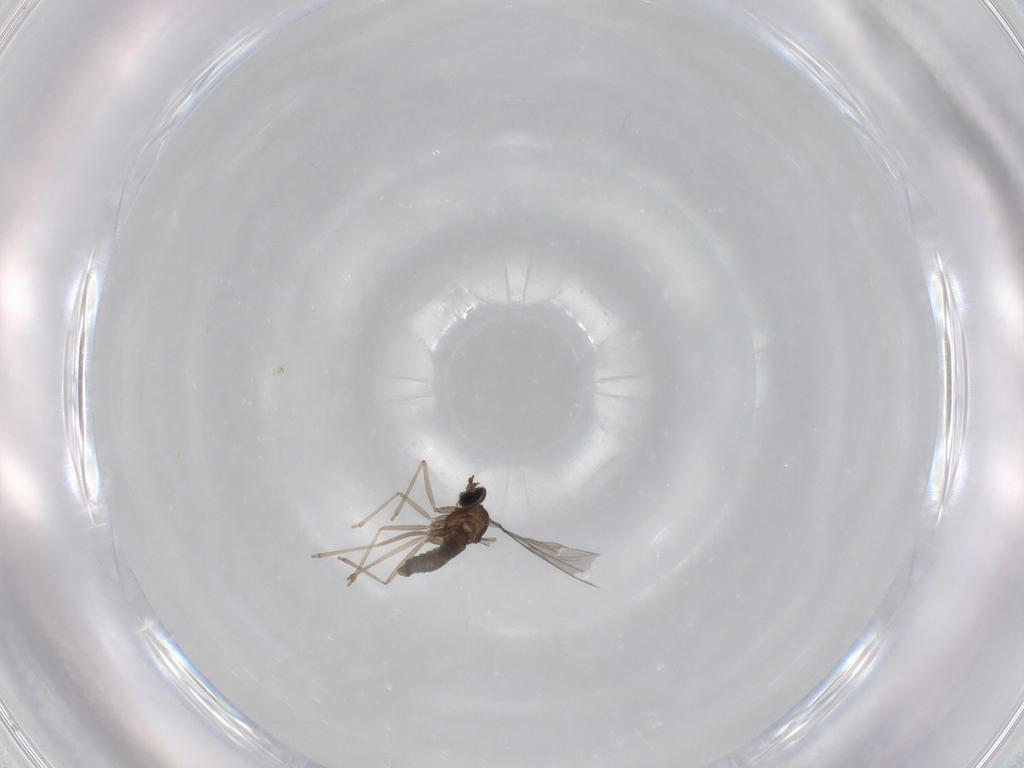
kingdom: Animalia
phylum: Arthropoda
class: Insecta
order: Diptera
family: Cecidomyiidae
